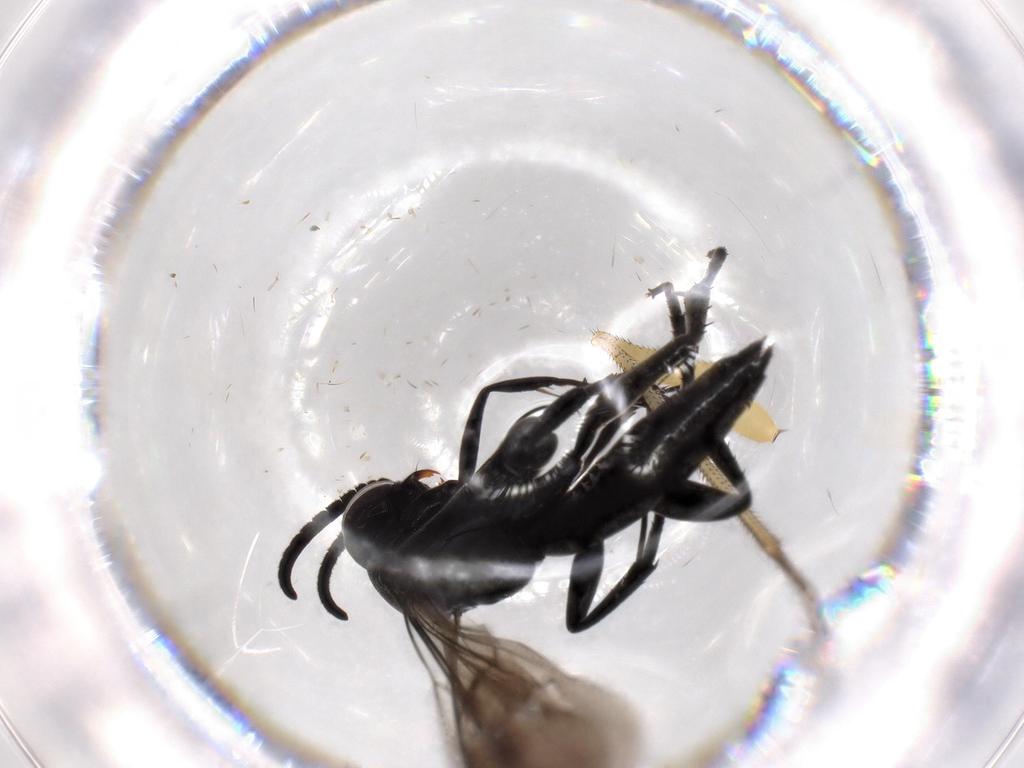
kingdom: Animalia
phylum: Arthropoda
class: Insecta
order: Hymenoptera
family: Pompilidae
